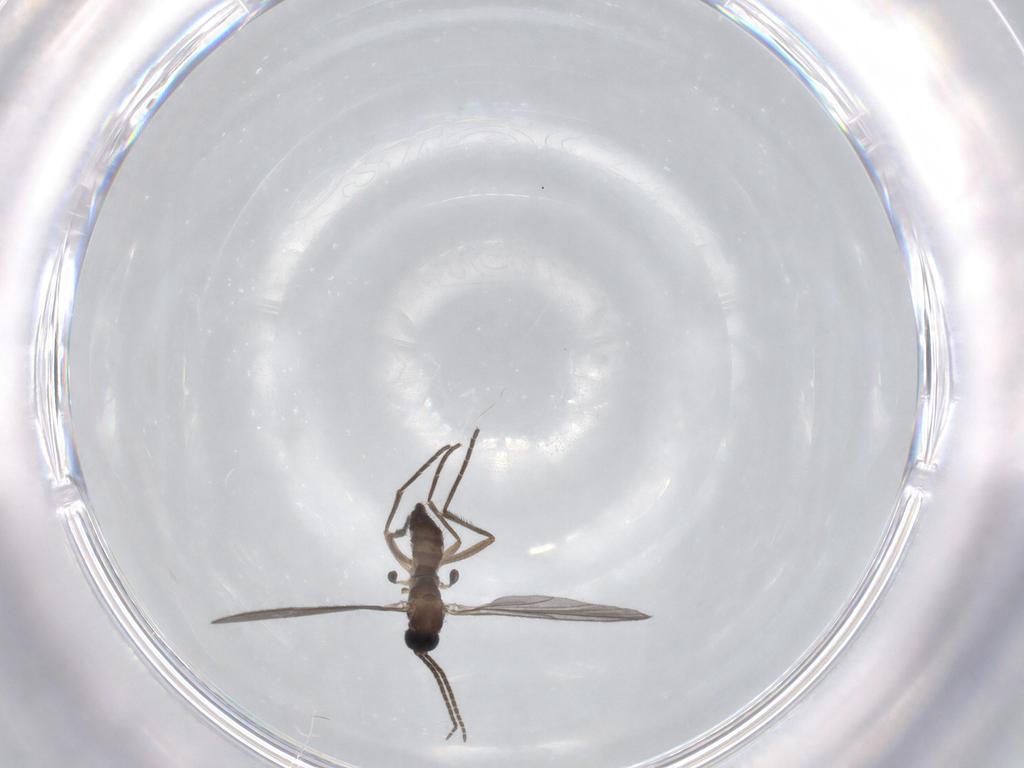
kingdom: Animalia
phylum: Arthropoda
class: Insecta
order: Diptera
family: Sciaridae
